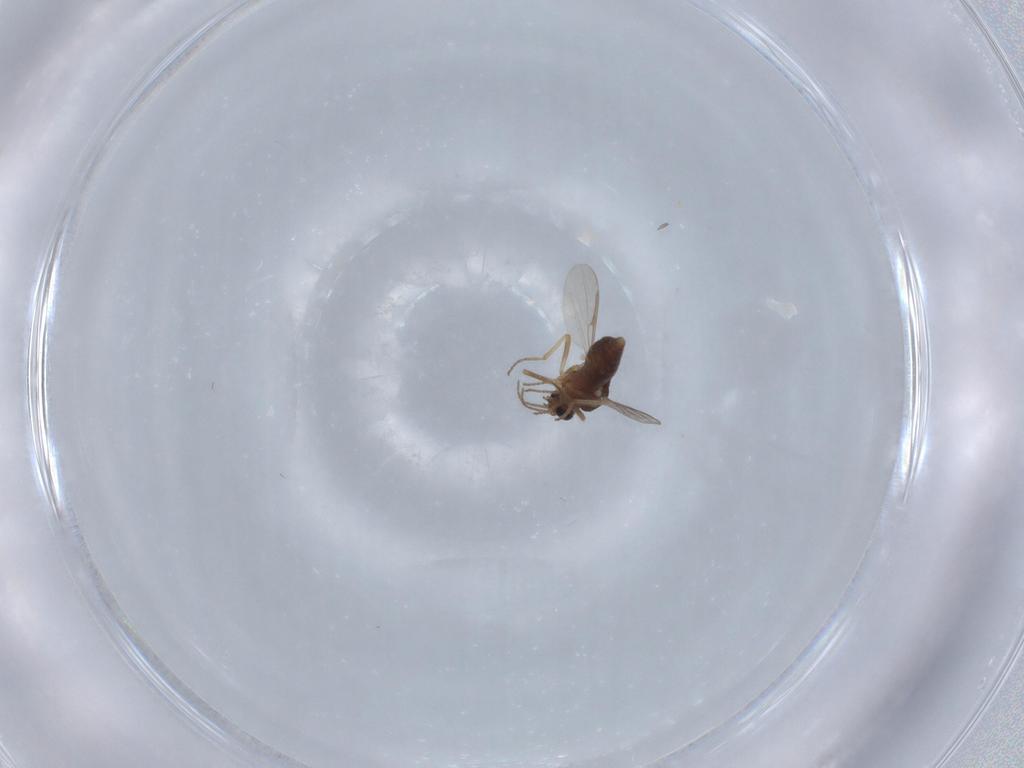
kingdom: Animalia
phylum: Arthropoda
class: Insecta
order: Diptera
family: Ceratopogonidae
